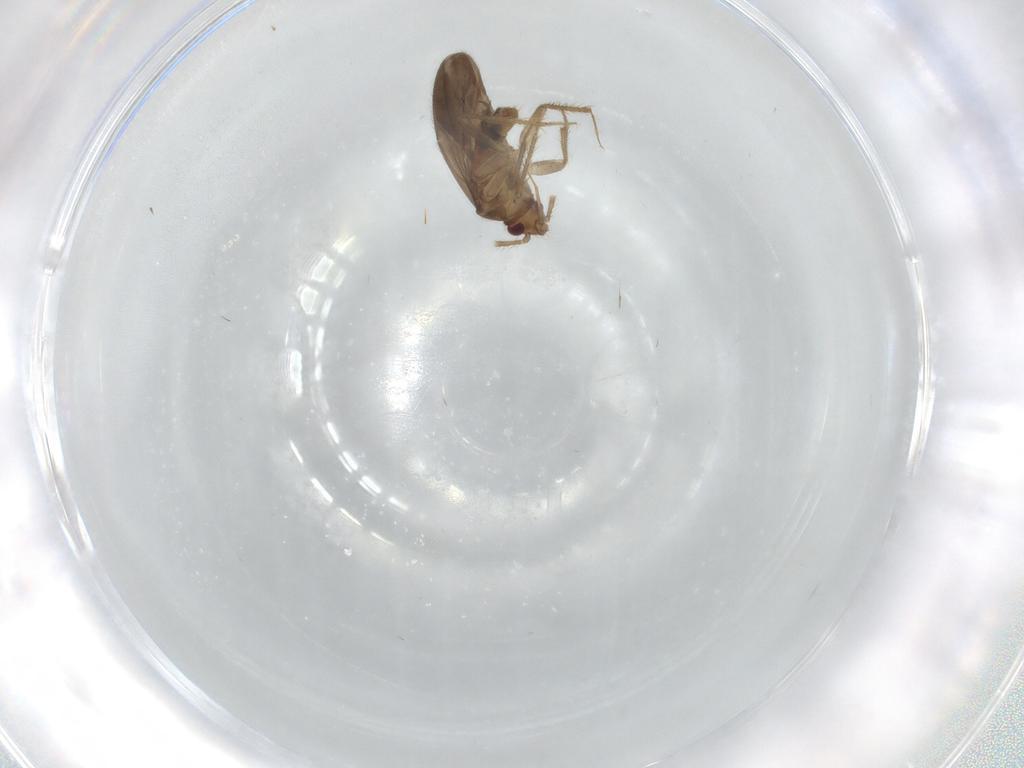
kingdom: Animalia
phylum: Arthropoda
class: Insecta
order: Hemiptera
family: Ceratocombidae
